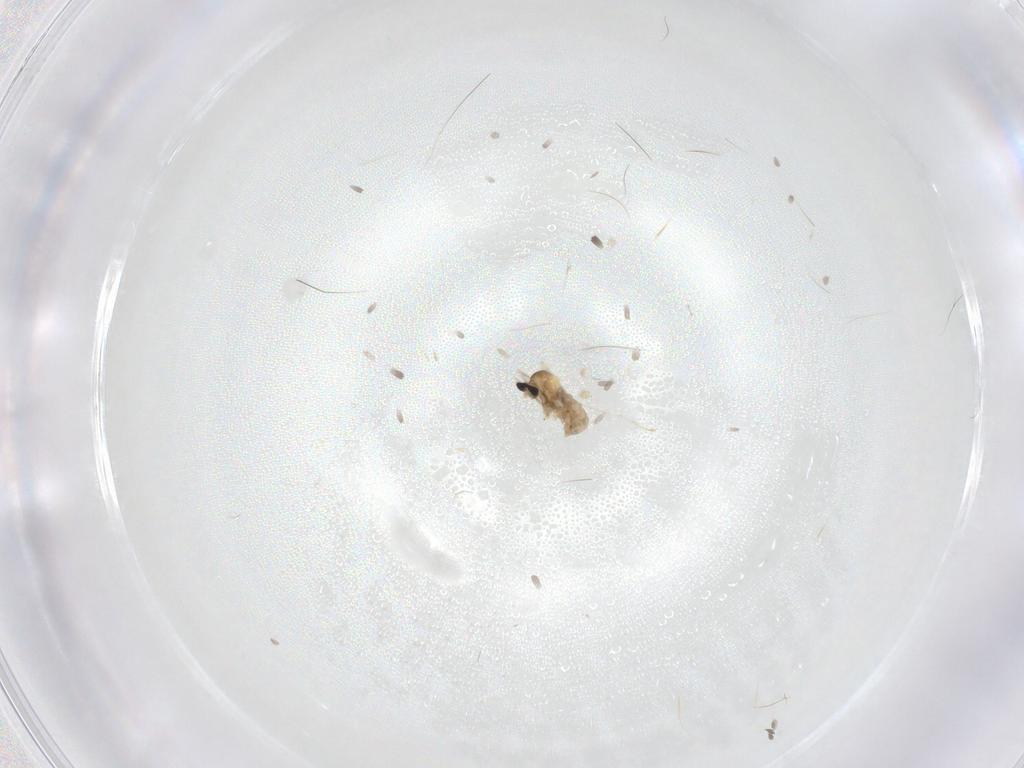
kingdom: Animalia
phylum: Arthropoda
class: Insecta
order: Diptera
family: Cecidomyiidae
